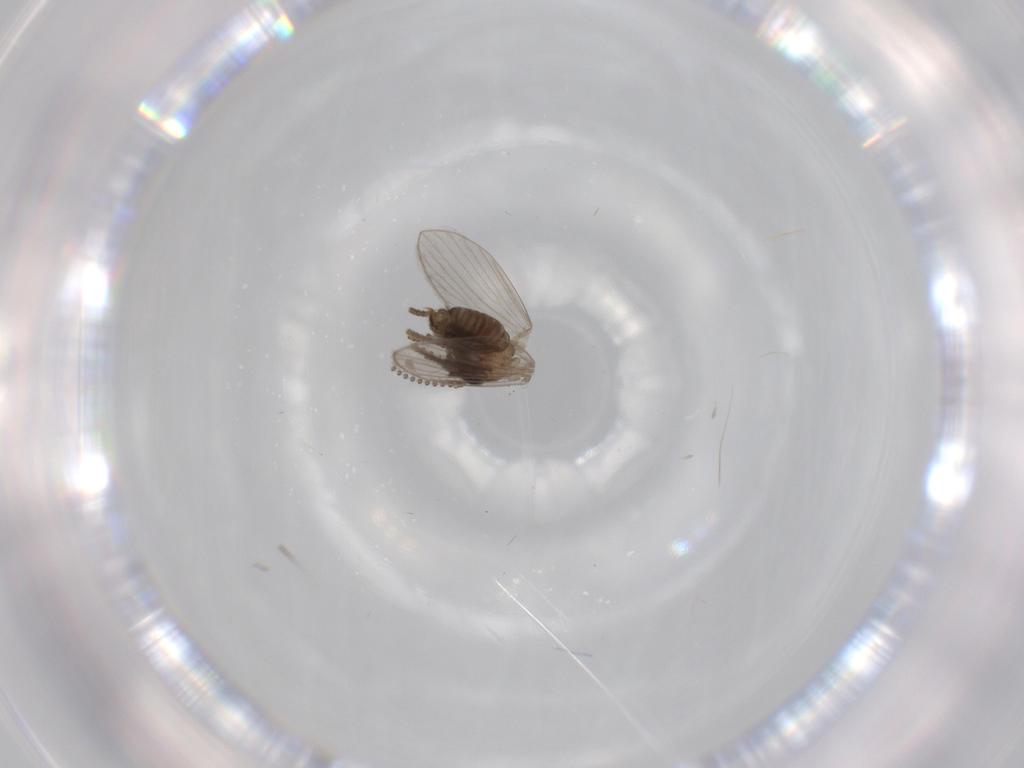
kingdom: Animalia
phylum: Arthropoda
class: Insecta
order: Diptera
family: Psychodidae
